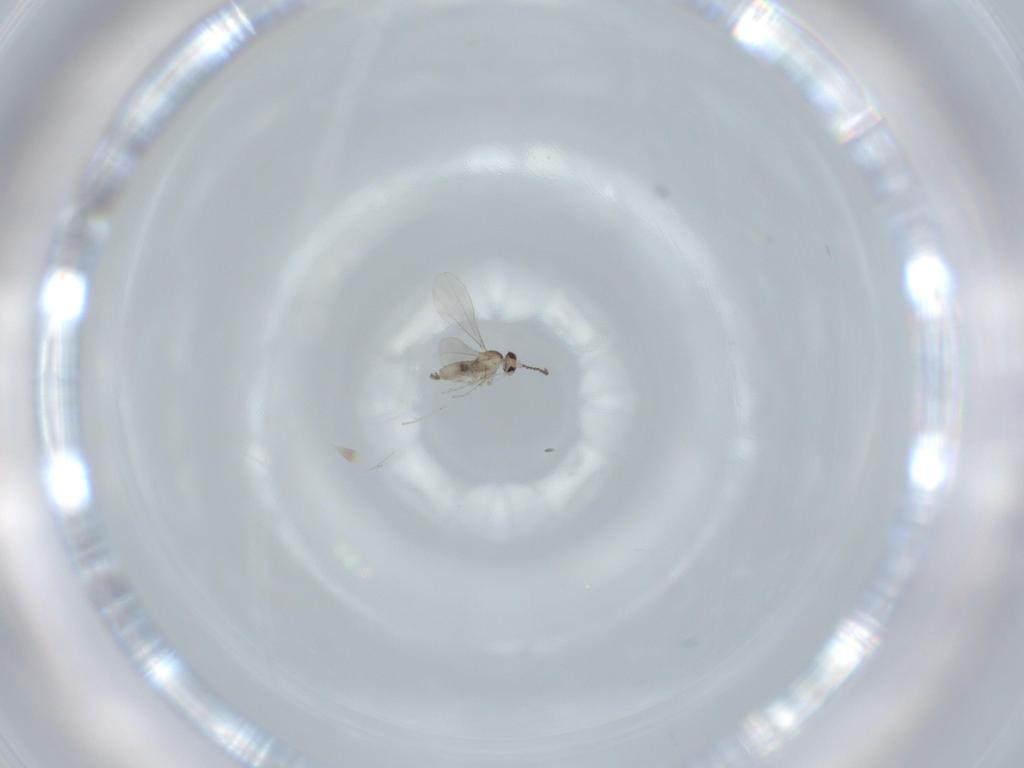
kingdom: Animalia
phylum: Arthropoda
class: Insecta
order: Diptera
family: Cecidomyiidae
